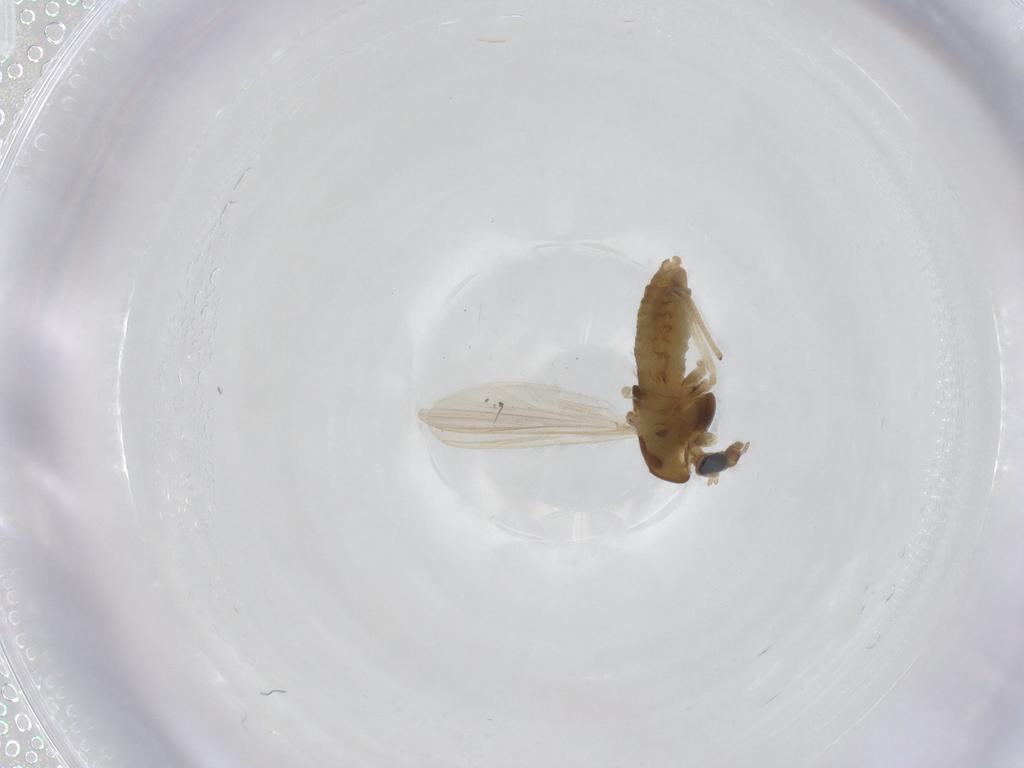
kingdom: Animalia
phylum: Arthropoda
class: Insecta
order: Diptera
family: Chironomidae
